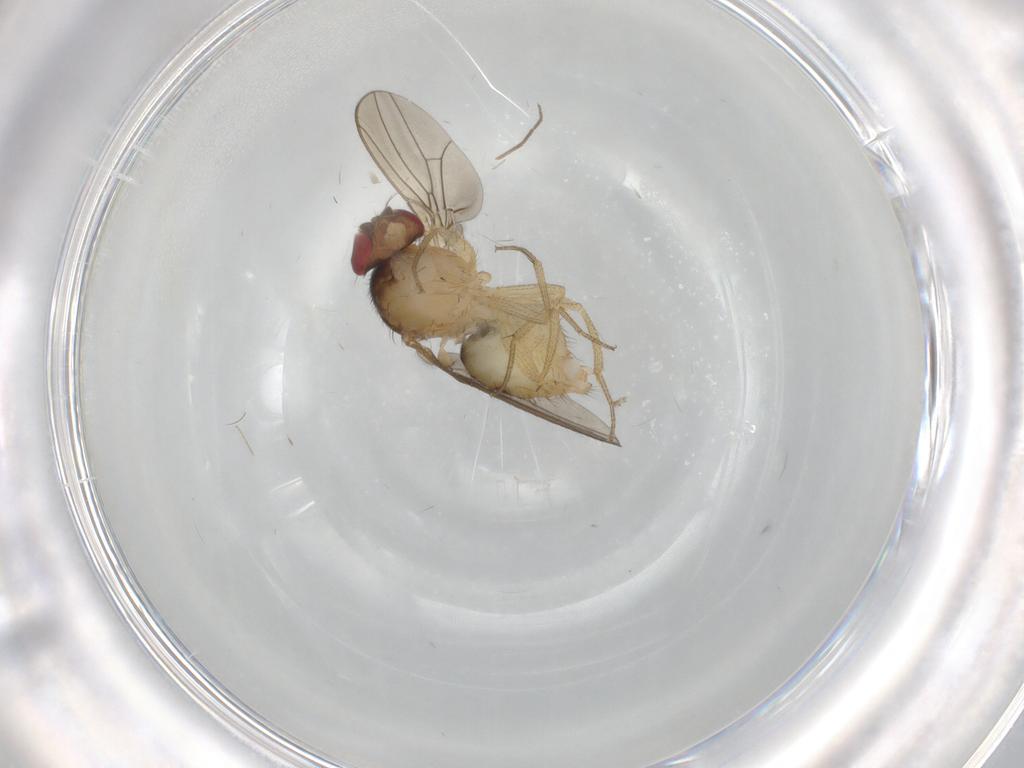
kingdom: Animalia
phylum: Arthropoda
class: Insecta
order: Diptera
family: Drosophilidae
